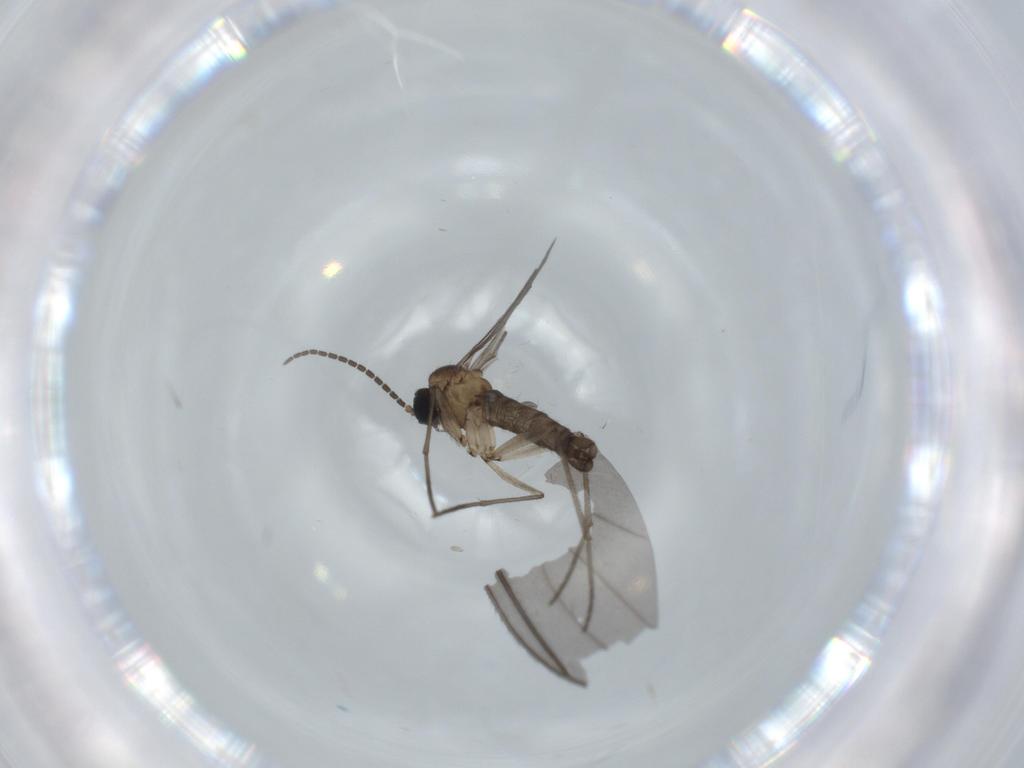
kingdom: Animalia
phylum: Arthropoda
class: Insecta
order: Diptera
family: Sciaridae
